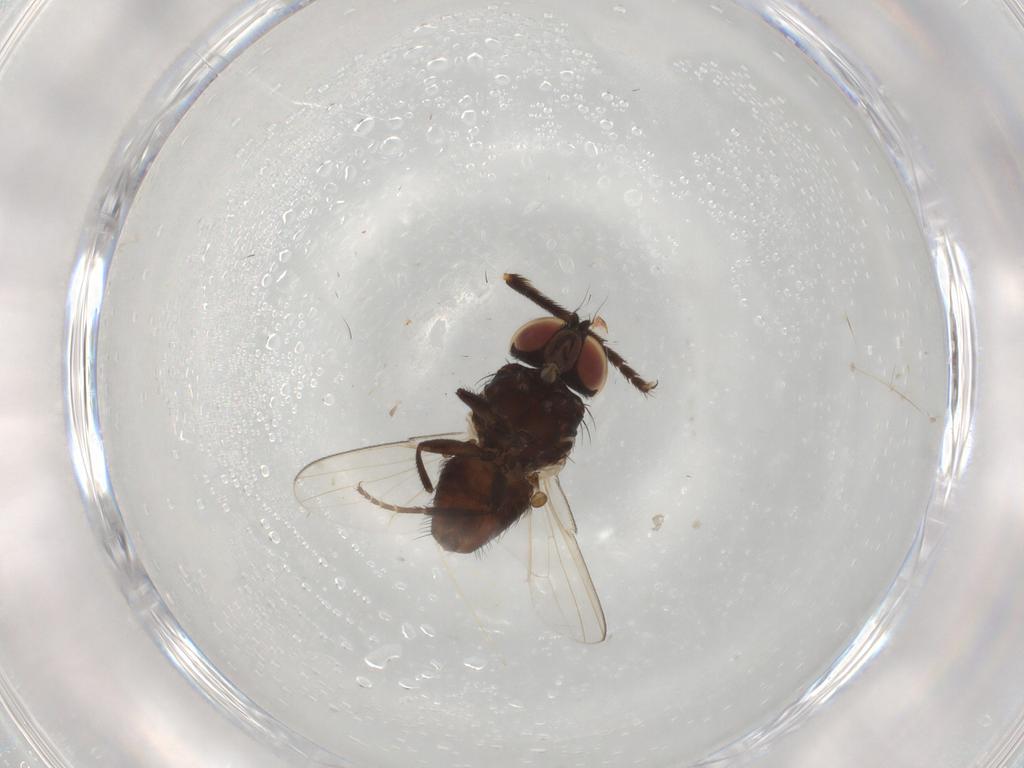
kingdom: Animalia
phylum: Arthropoda
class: Insecta
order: Diptera
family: Milichiidae
